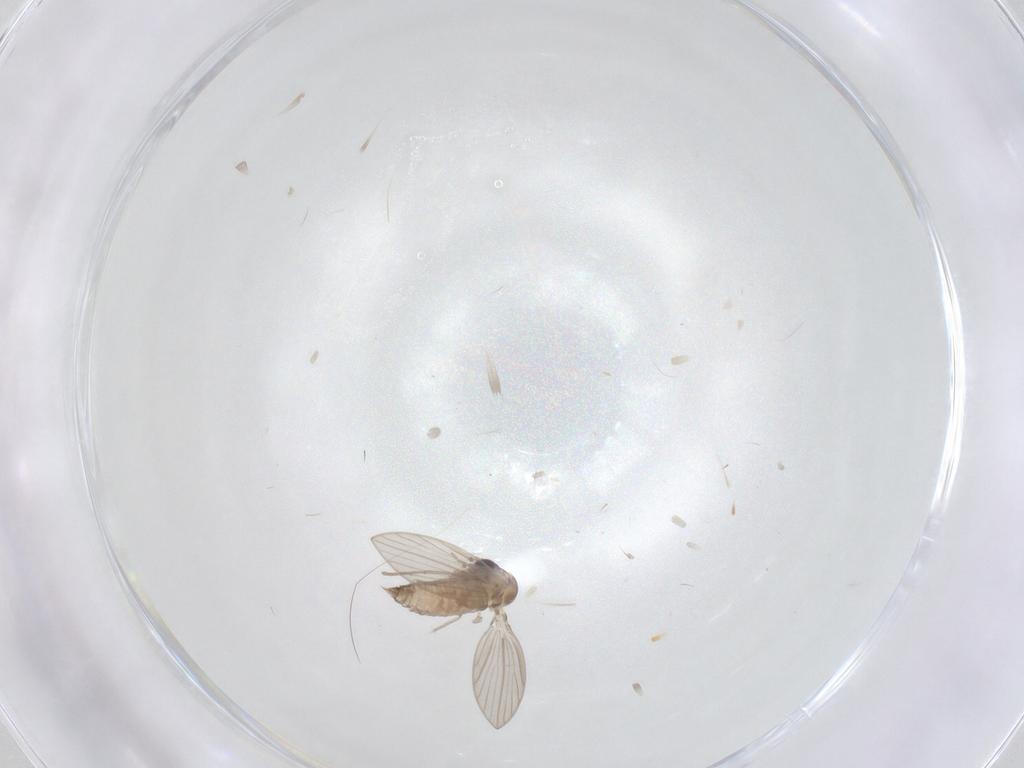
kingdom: Animalia
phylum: Arthropoda
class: Insecta
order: Diptera
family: Psychodidae
